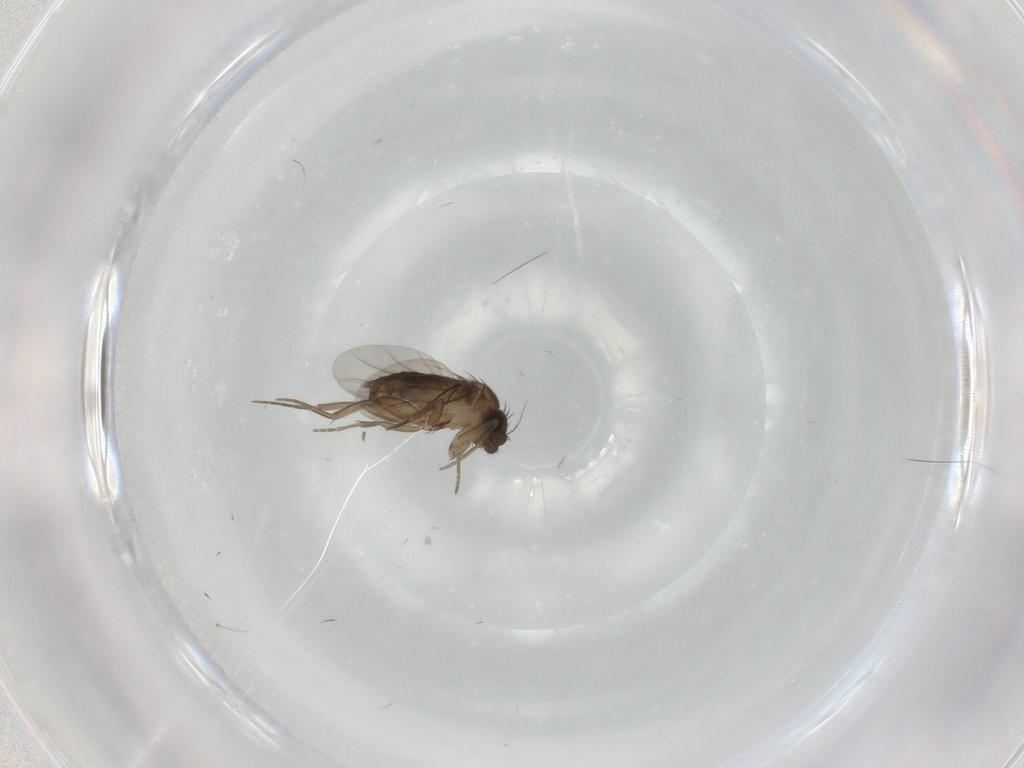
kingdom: Animalia
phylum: Arthropoda
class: Insecta
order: Diptera
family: Phoridae
